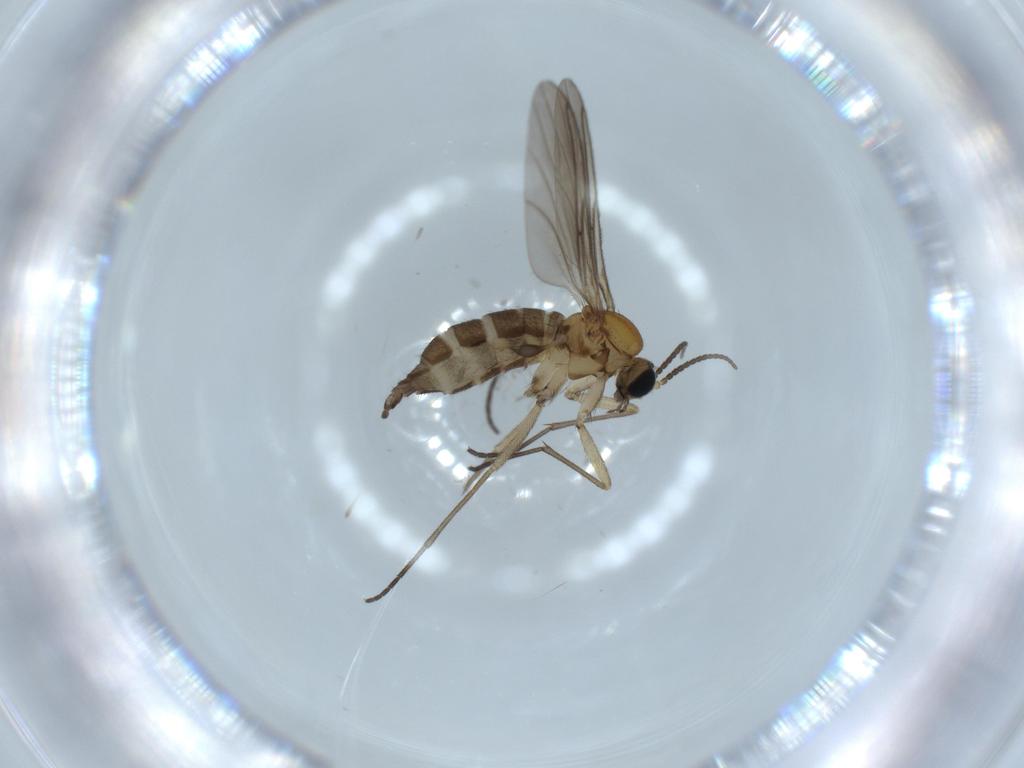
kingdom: Animalia
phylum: Arthropoda
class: Insecta
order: Diptera
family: Sciaridae
